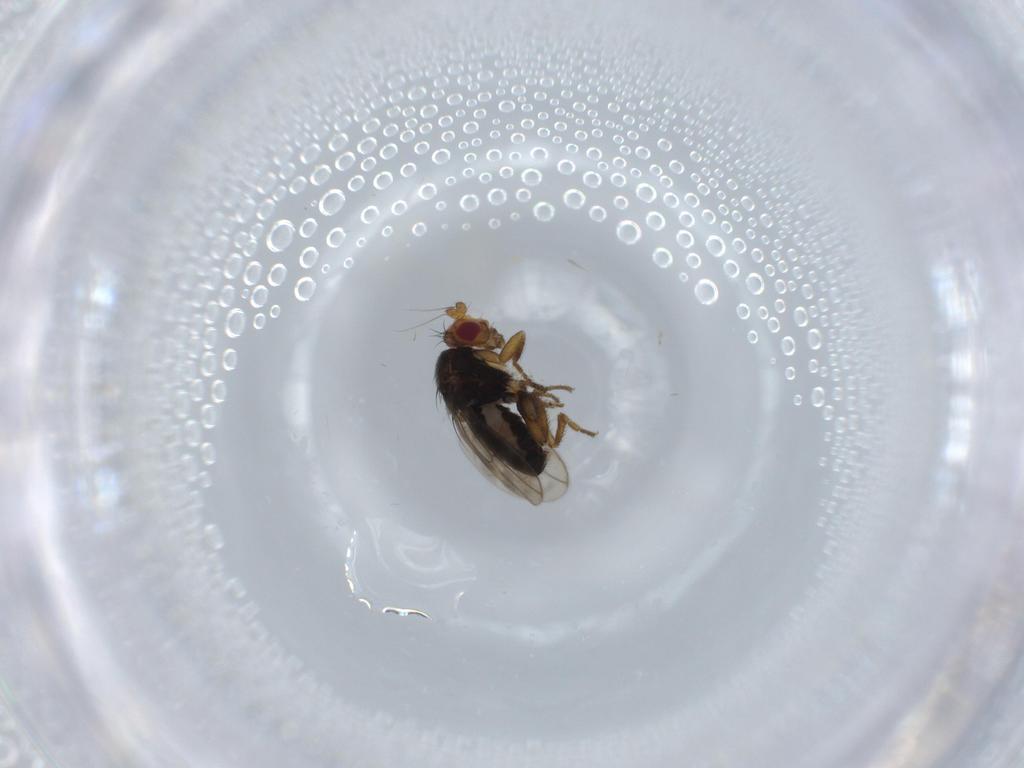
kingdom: Animalia
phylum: Arthropoda
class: Insecta
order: Diptera
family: Sphaeroceridae
